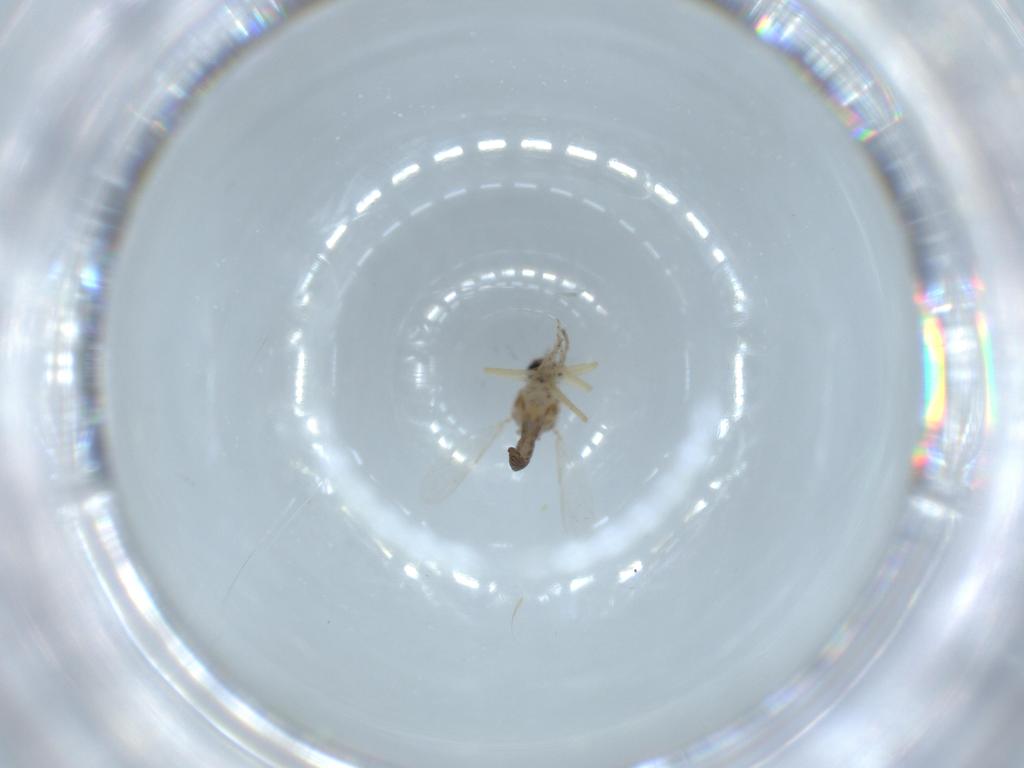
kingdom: Animalia
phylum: Arthropoda
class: Insecta
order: Diptera
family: Ceratopogonidae
